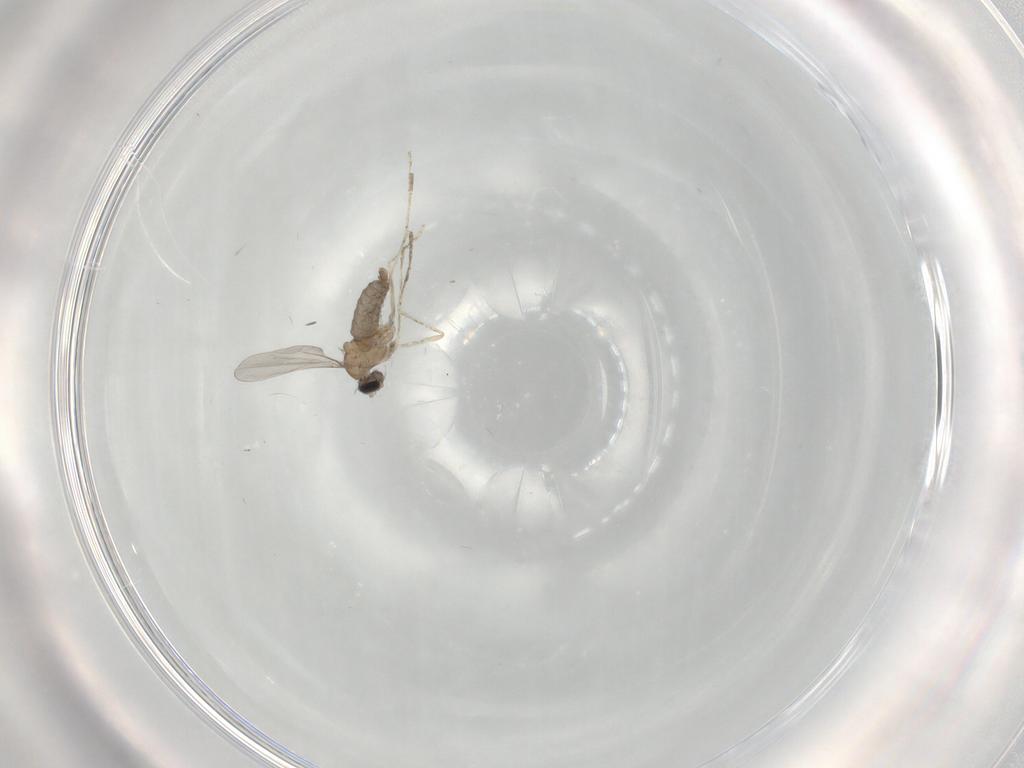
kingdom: Animalia
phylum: Arthropoda
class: Insecta
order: Diptera
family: Cecidomyiidae
